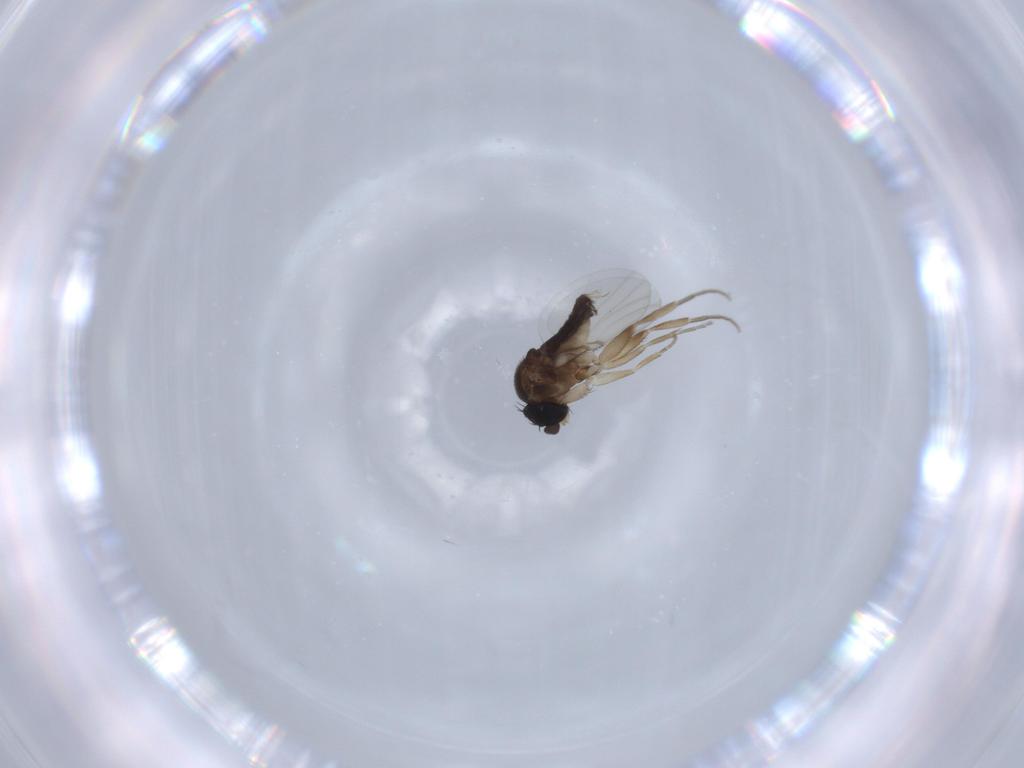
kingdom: Animalia
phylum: Arthropoda
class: Insecta
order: Diptera
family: Phoridae
